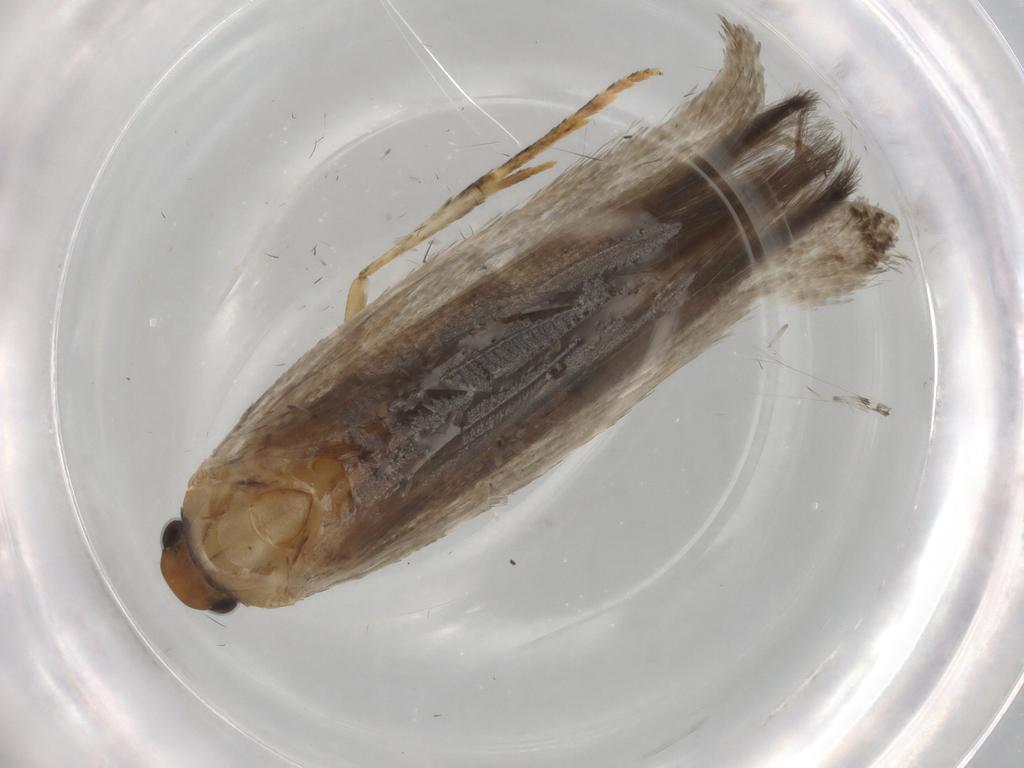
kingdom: Animalia
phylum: Arthropoda
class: Insecta
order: Lepidoptera
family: Gelechiidae
